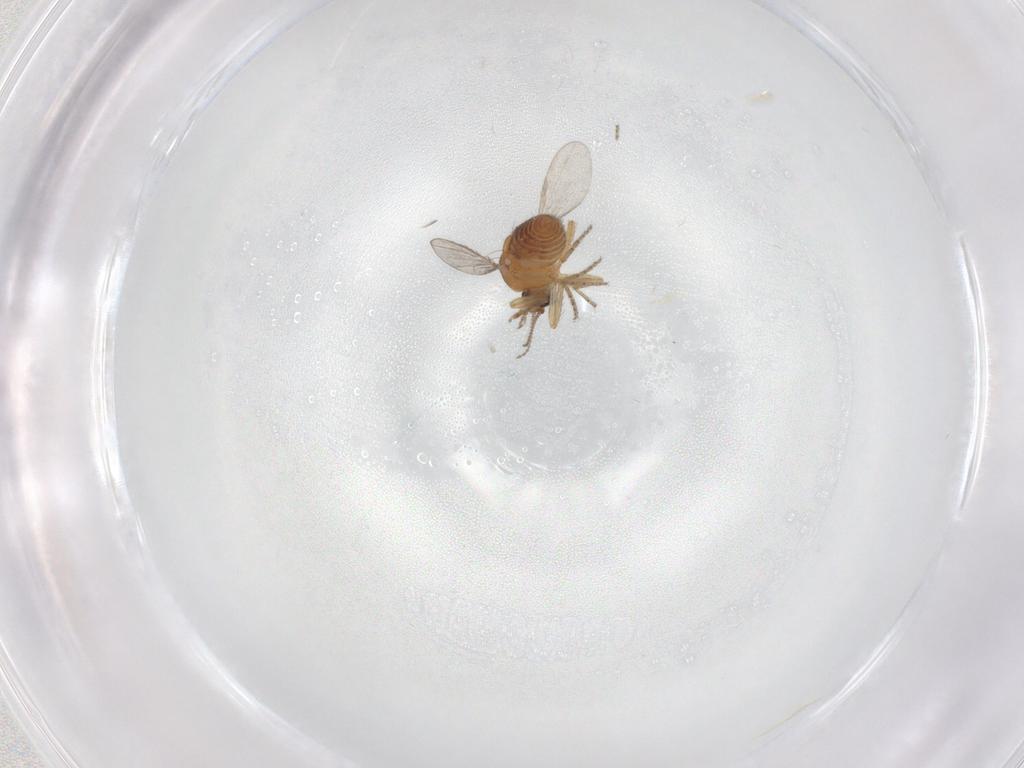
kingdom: Animalia
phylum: Arthropoda
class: Insecta
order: Diptera
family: Ceratopogonidae
